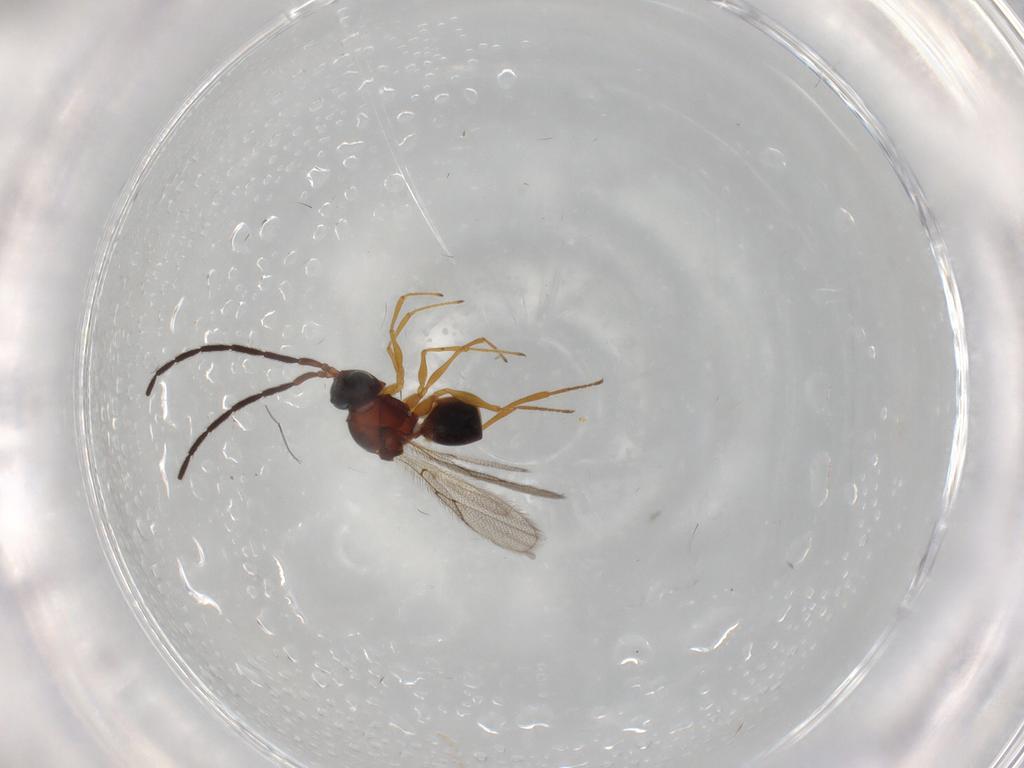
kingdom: Animalia
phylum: Arthropoda
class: Insecta
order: Hymenoptera
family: Figitidae
